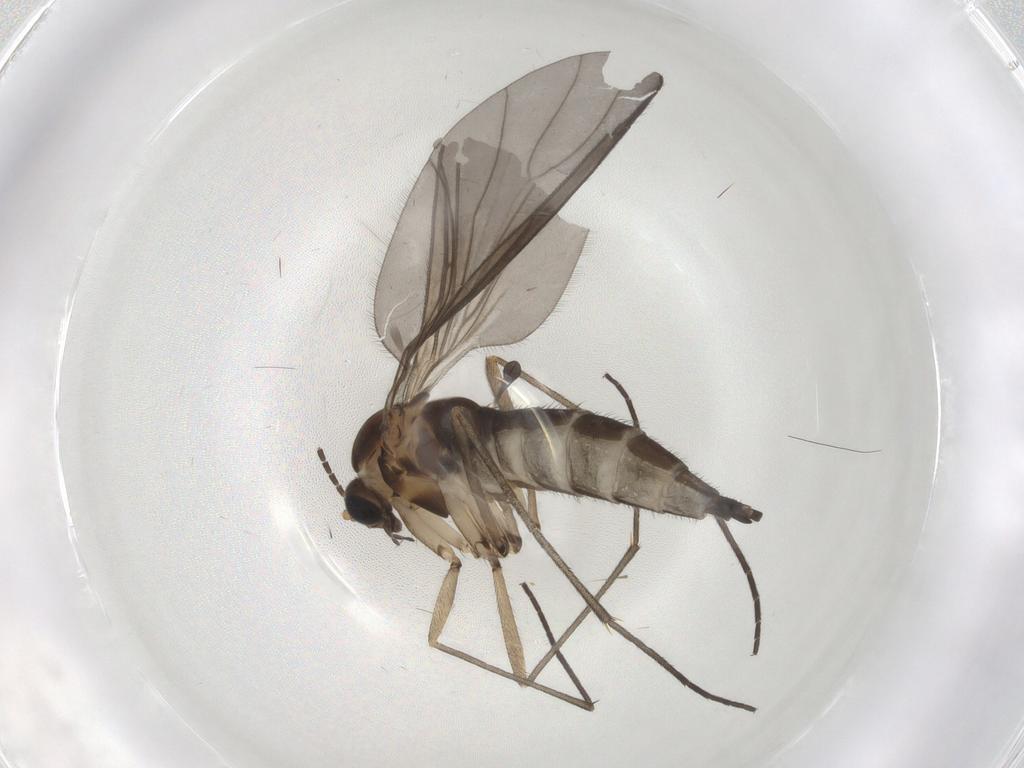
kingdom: Animalia
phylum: Arthropoda
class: Insecta
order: Diptera
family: Sciaridae
